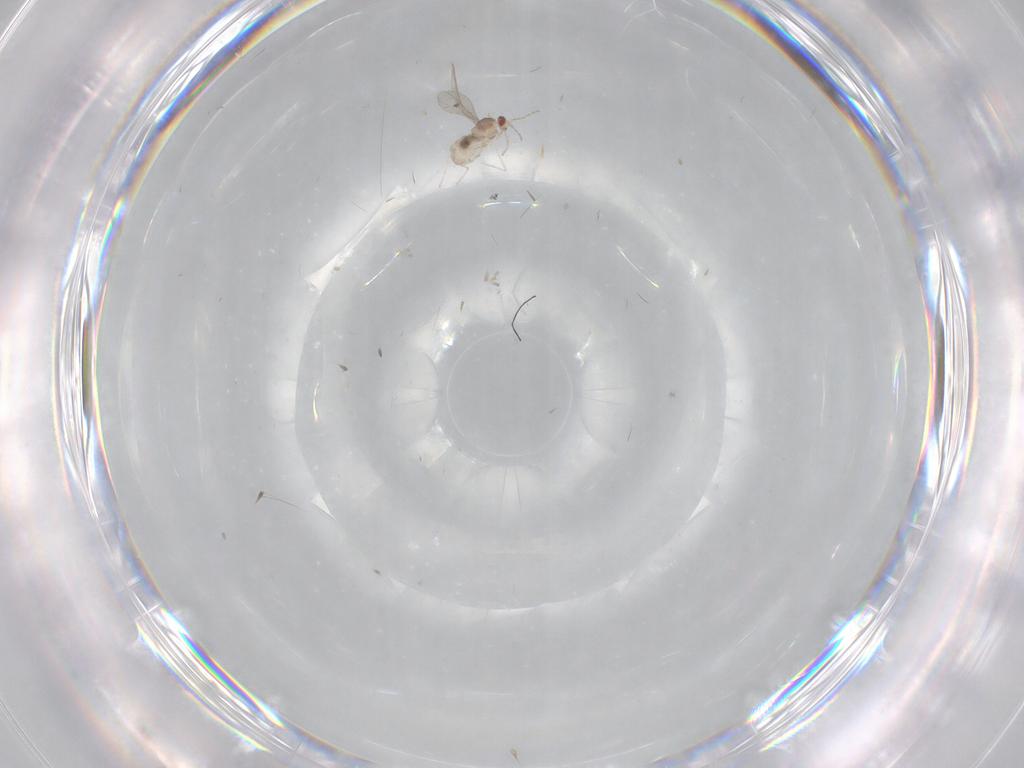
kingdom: Animalia
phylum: Arthropoda
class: Insecta
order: Diptera
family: Cecidomyiidae
